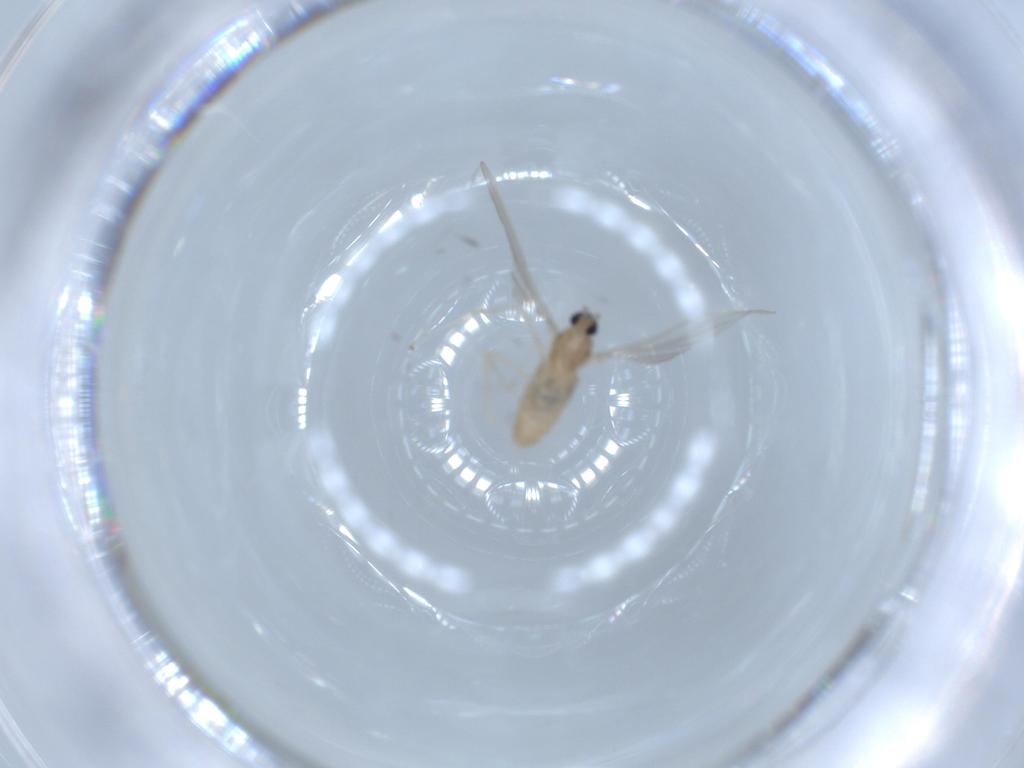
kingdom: Animalia
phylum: Arthropoda
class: Insecta
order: Diptera
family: Cecidomyiidae
